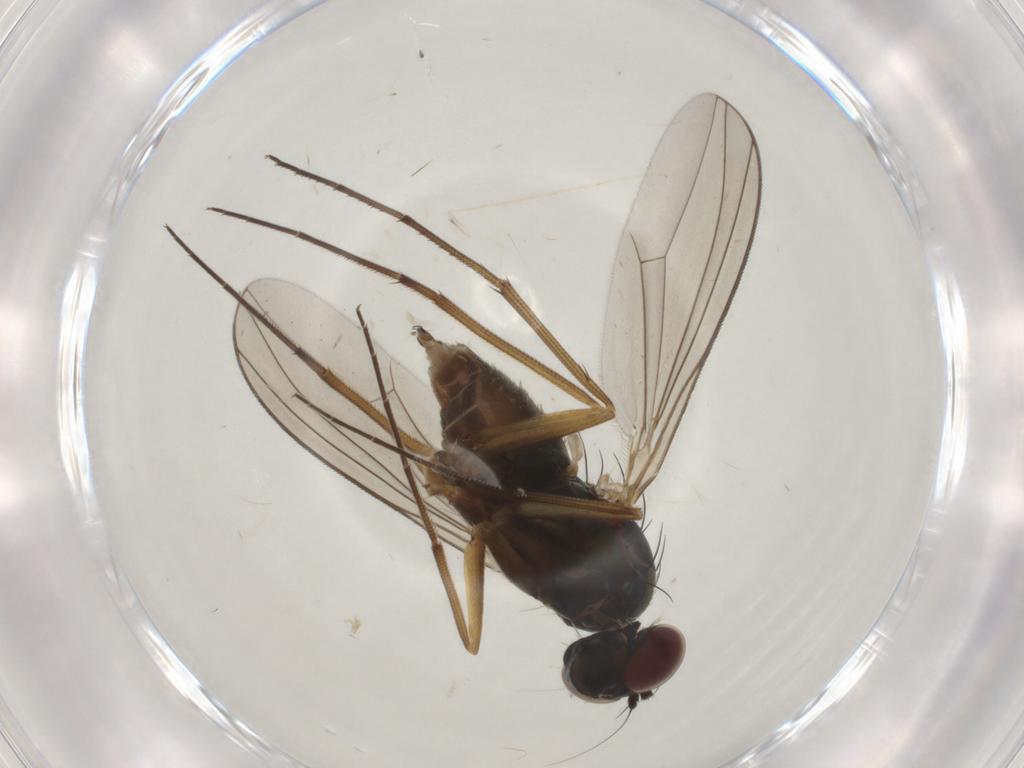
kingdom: Animalia
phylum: Arthropoda
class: Insecta
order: Diptera
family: Dolichopodidae
